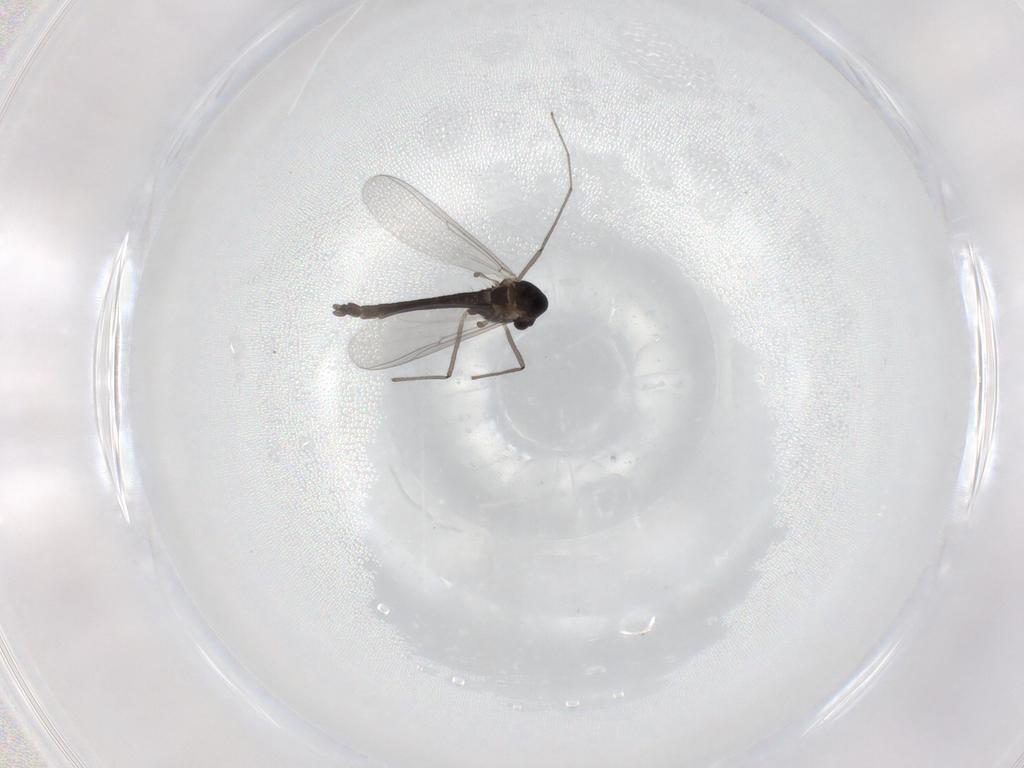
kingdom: Animalia
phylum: Arthropoda
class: Insecta
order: Diptera
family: Chironomidae
